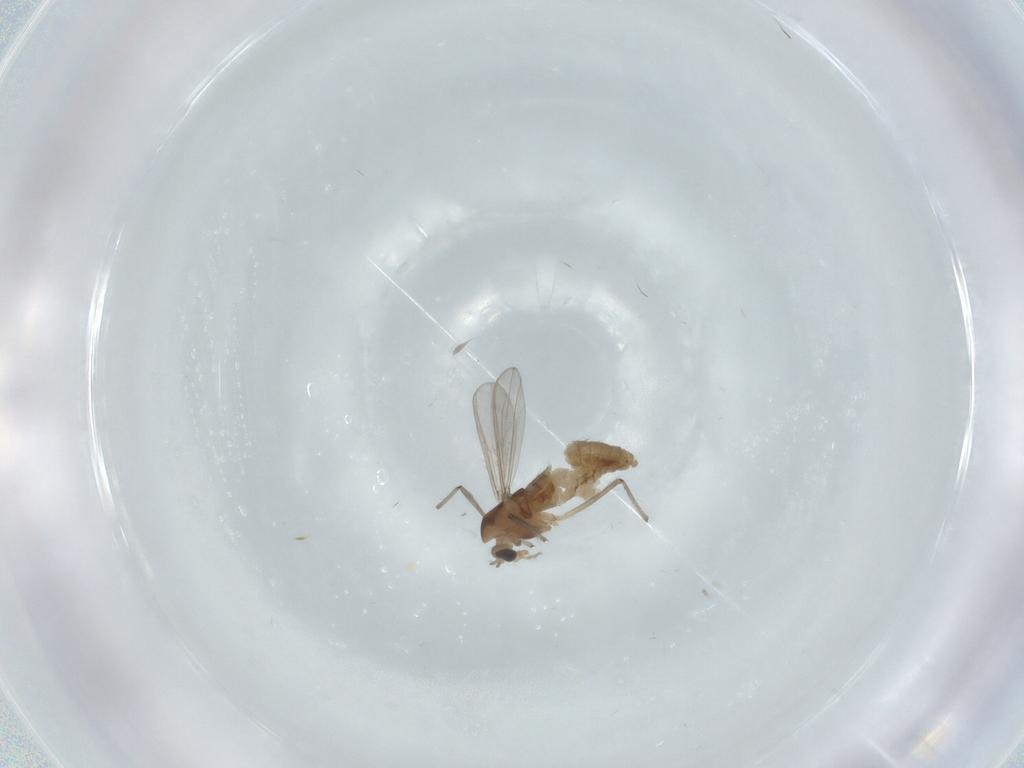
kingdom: Animalia
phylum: Arthropoda
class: Insecta
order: Diptera
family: Chironomidae
